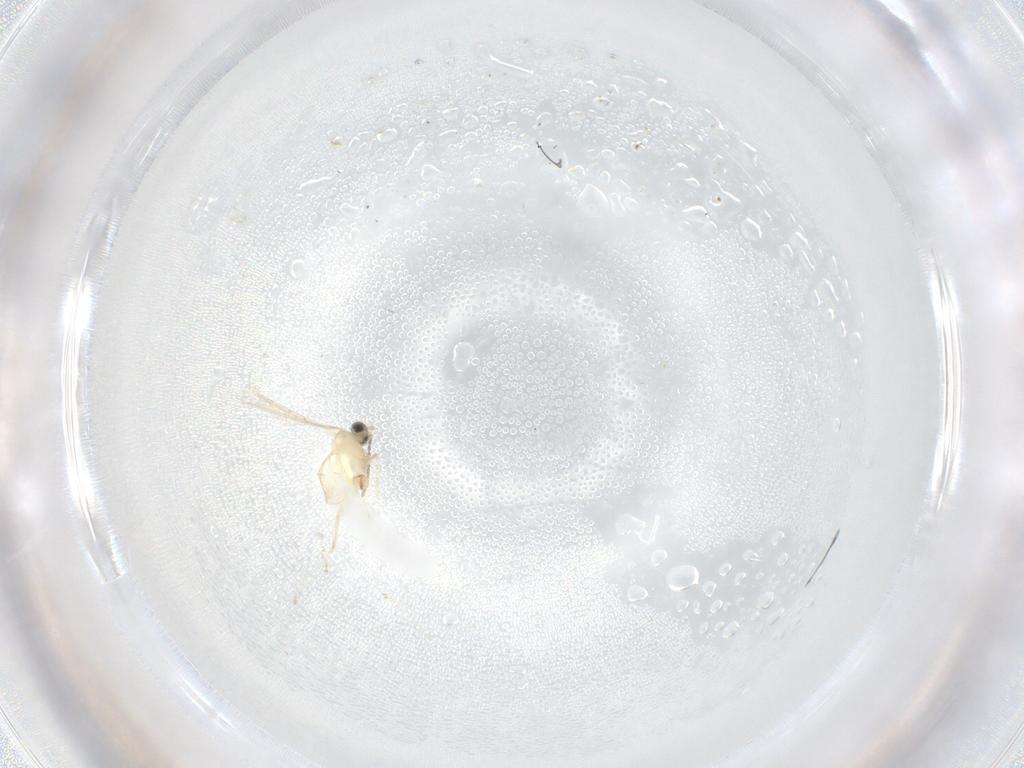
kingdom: Animalia
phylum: Arthropoda
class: Insecta
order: Diptera
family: Cecidomyiidae
